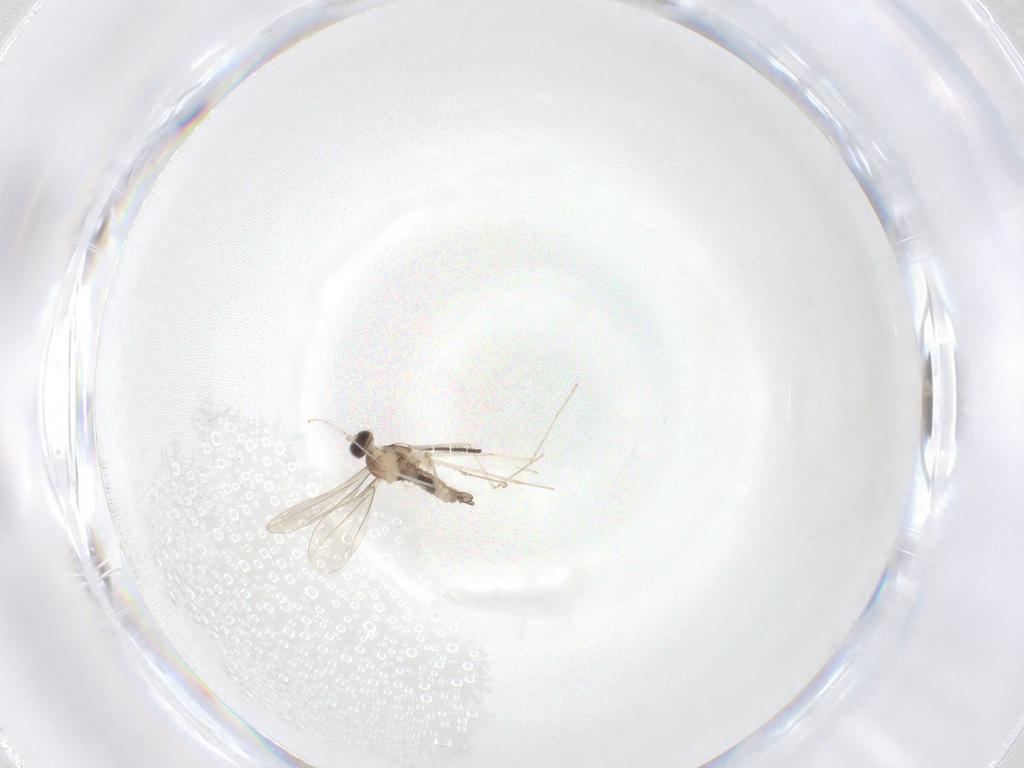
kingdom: Animalia
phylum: Arthropoda
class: Insecta
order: Diptera
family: Cecidomyiidae
